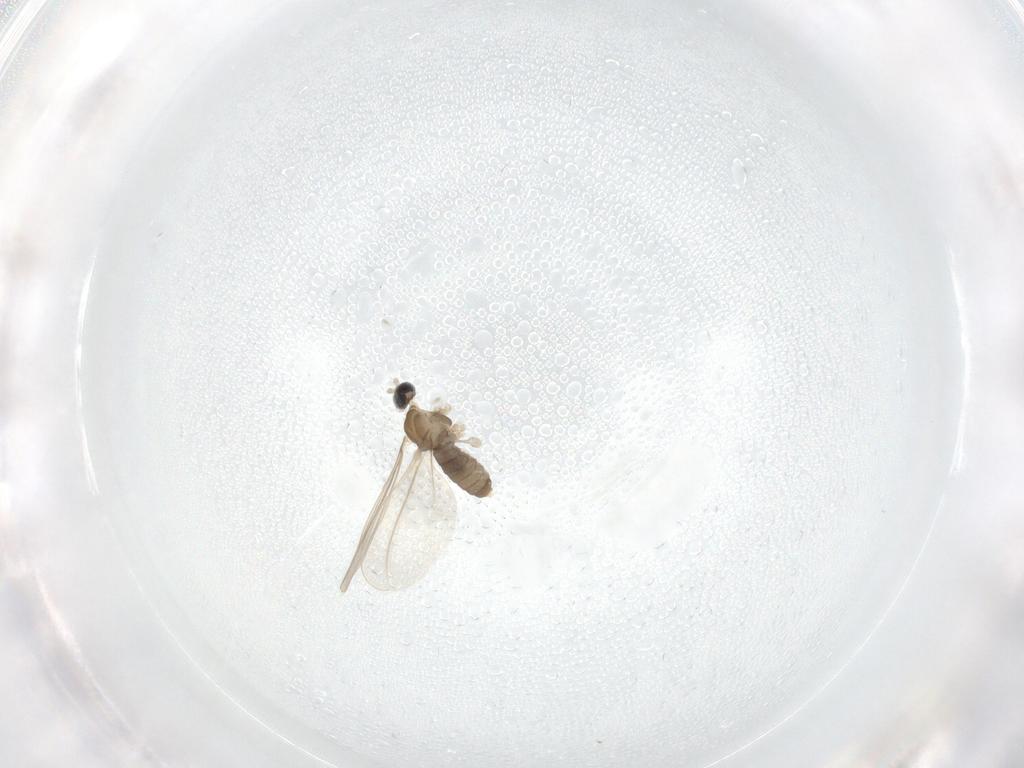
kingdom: Animalia
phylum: Arthropoda
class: Insecta
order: Diptera
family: Cecidomyiidae
